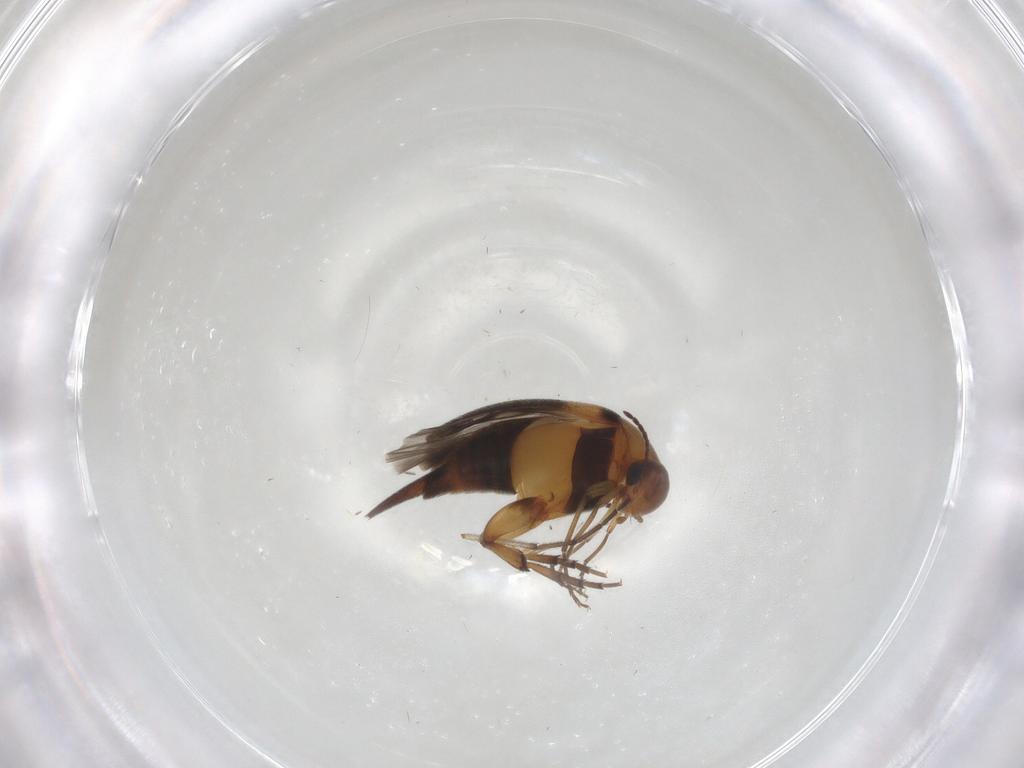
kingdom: Animalia
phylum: Arthropoda
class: Insecta
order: Coleoptera
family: Mordellidae
